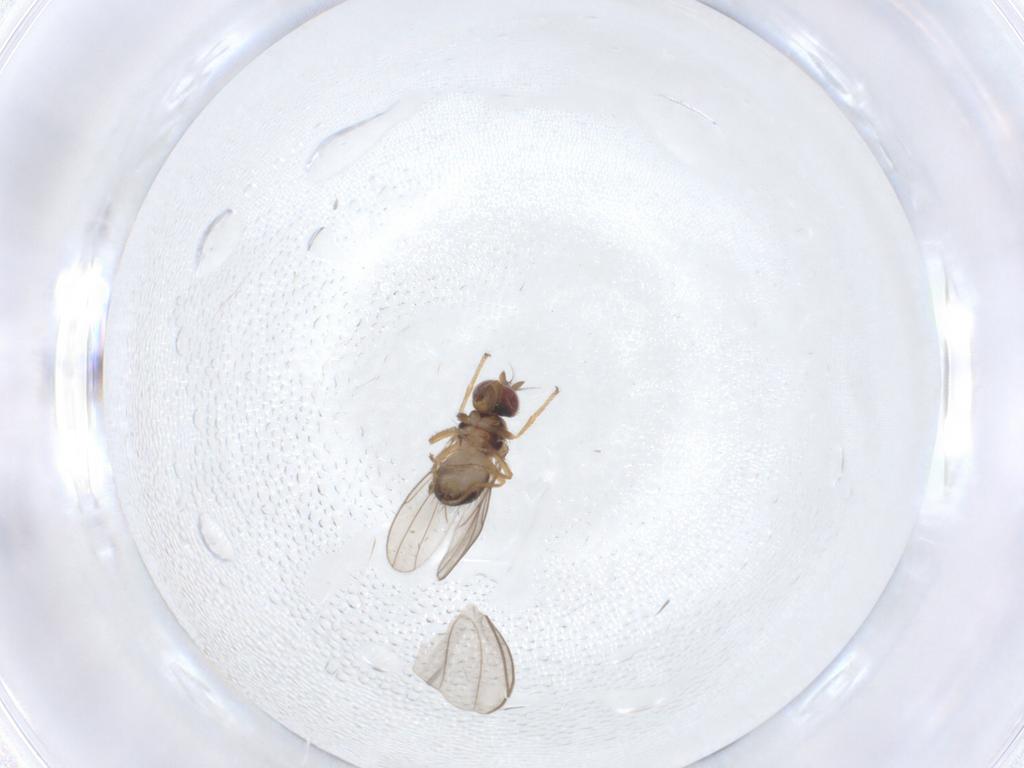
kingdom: Animalia
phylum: Arthropoda
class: Insecta
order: Diptera
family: Ephydridae
